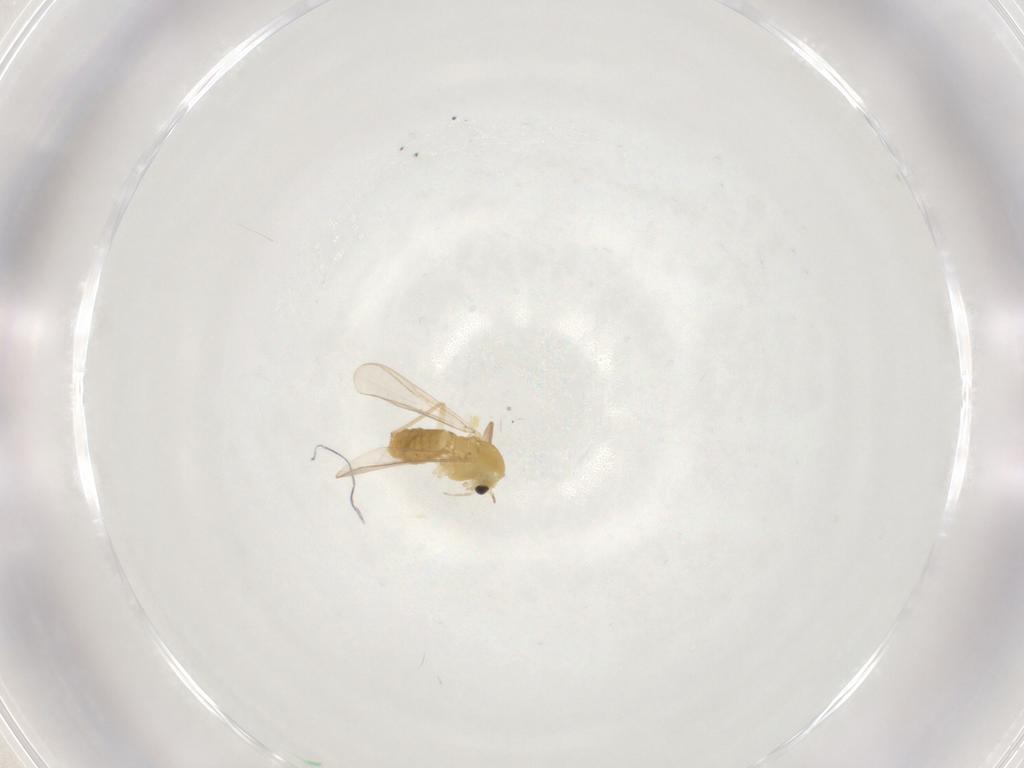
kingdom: Animalia
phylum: Arthropoda
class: Insecta
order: Diptera
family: Chironomidae
